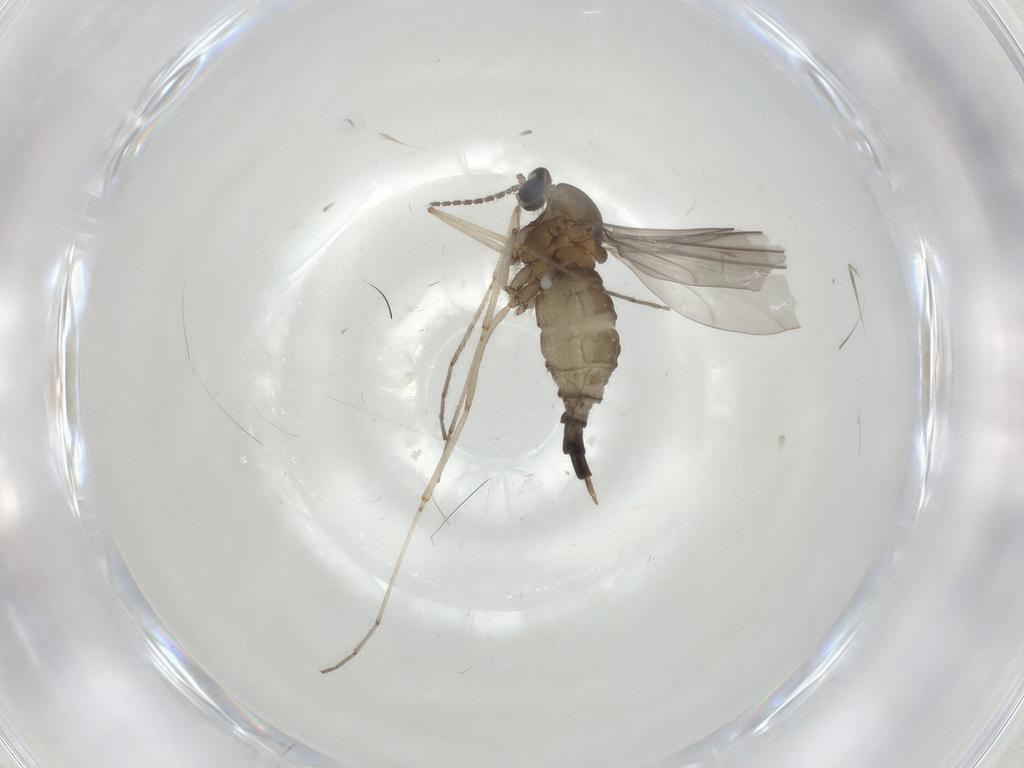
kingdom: Animalia
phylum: Arthropoda
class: Insecta
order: Diptera
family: Cecidomyiidae
